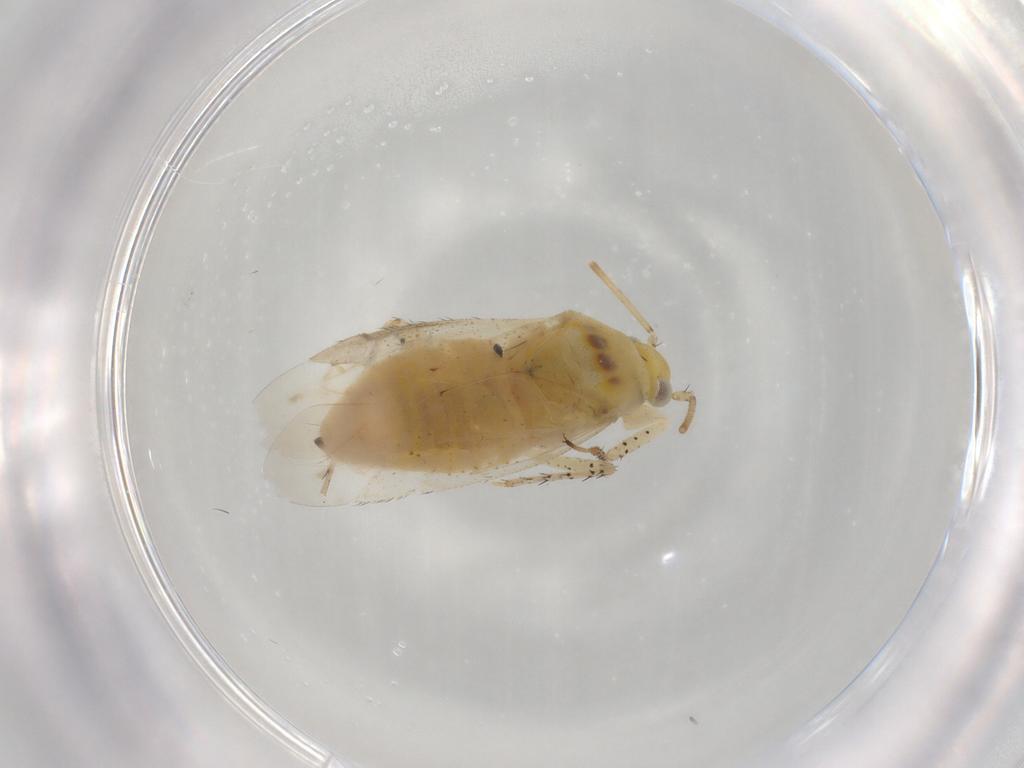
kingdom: Animalia
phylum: Arthropoda
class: Insecta
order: Hemiptera
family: Miridae
